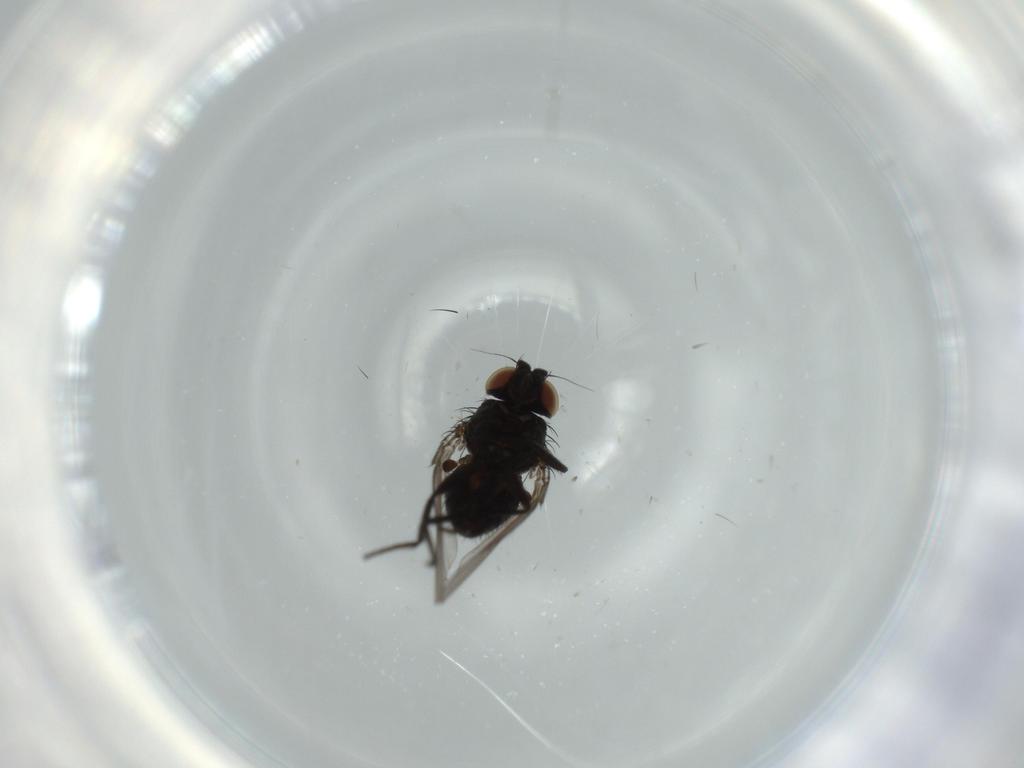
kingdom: Animalia
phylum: Arthropoda
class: Insecta
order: Diptera
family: Milichiidae
